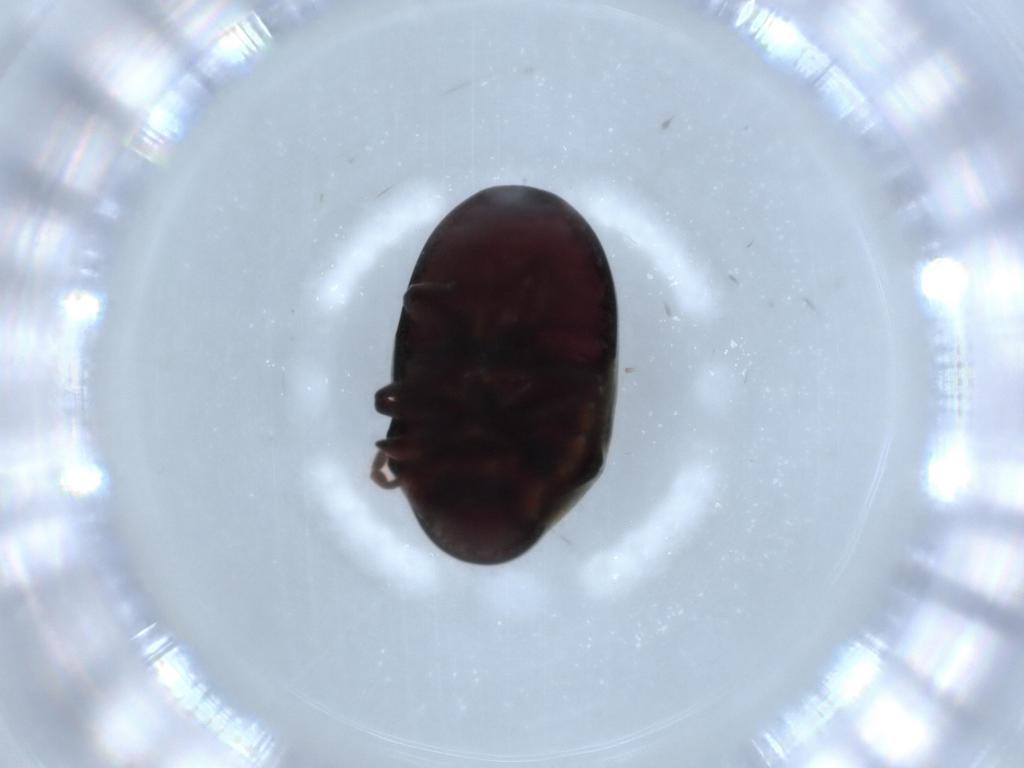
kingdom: Animalia
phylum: Arthropoda
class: Insecta
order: Coleoptera
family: Ptinidae
